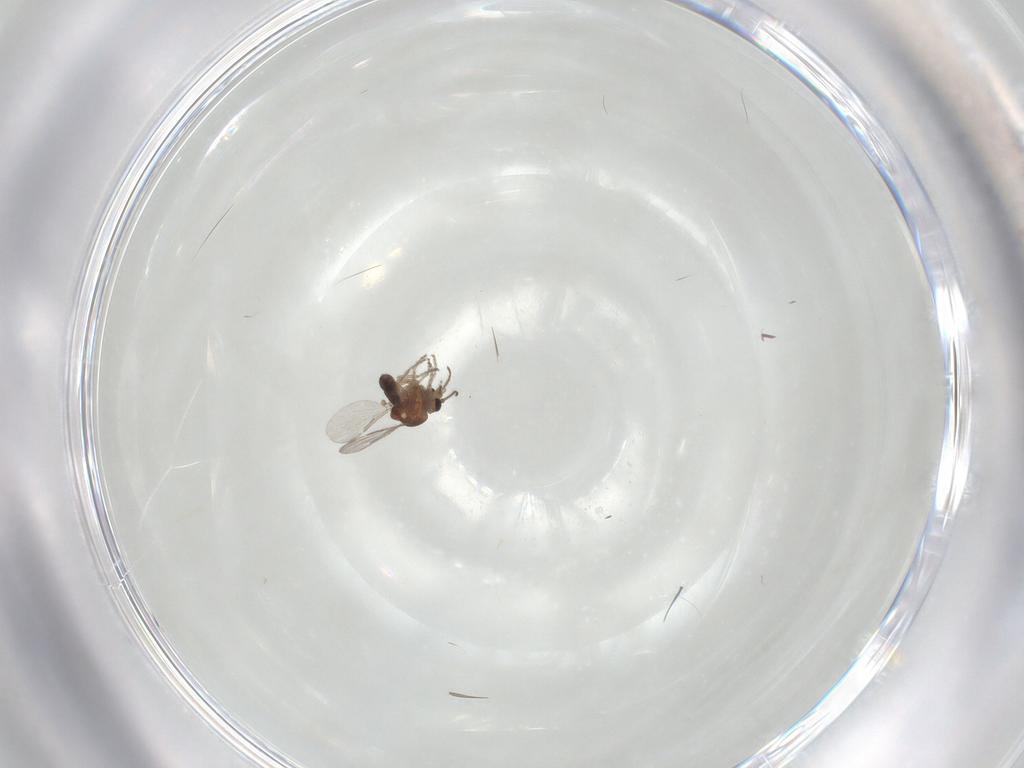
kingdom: Animalia
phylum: Arthropoda
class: Insecta
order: Diptera
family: Ceratopogonidae
